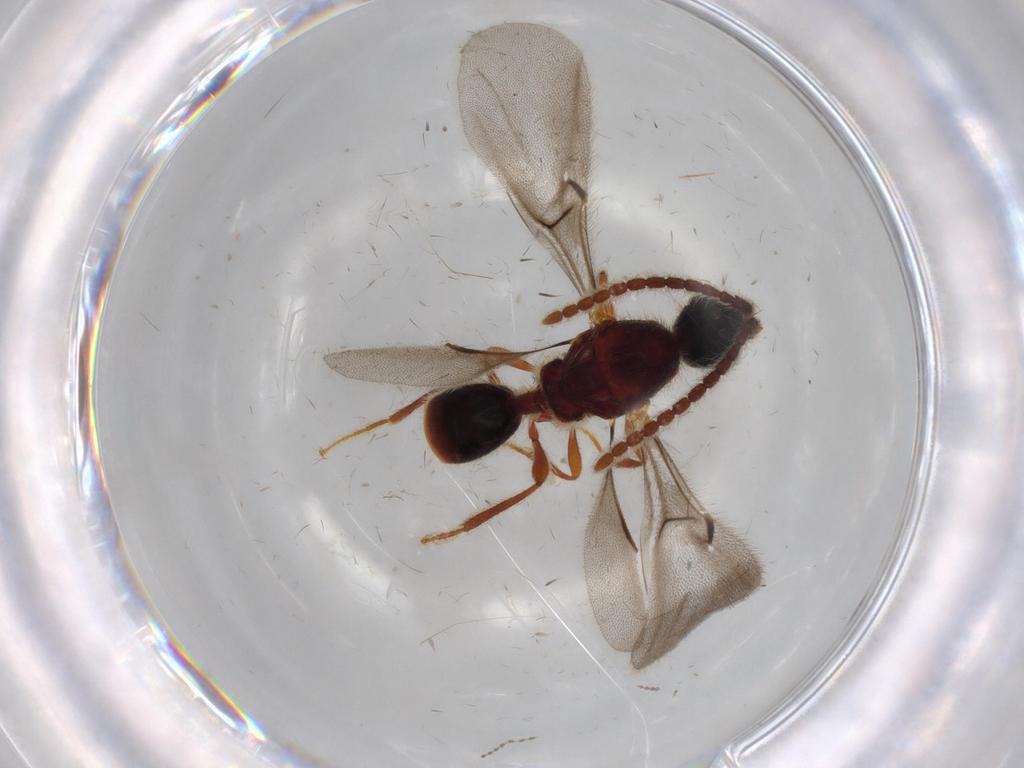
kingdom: Animalia
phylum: Arthropoda
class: Insecta
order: Hymenoptera
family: Diapriidae
